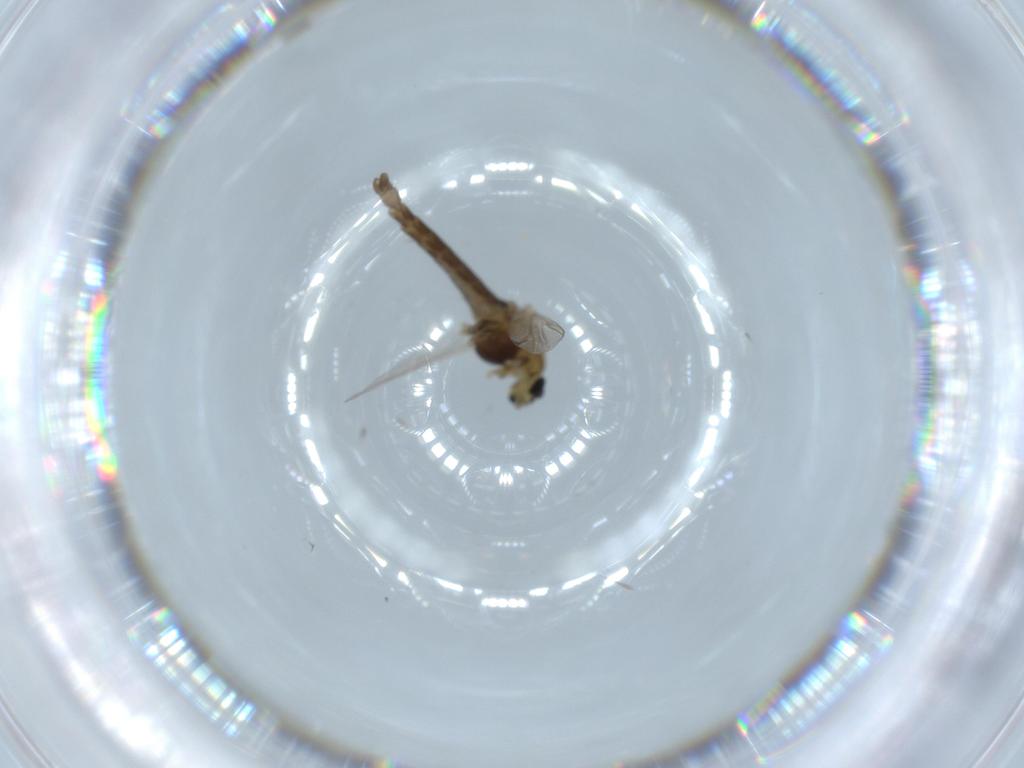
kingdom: Animalia
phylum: Arthropoda
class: Insecta
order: Diptera
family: Chironomidae
